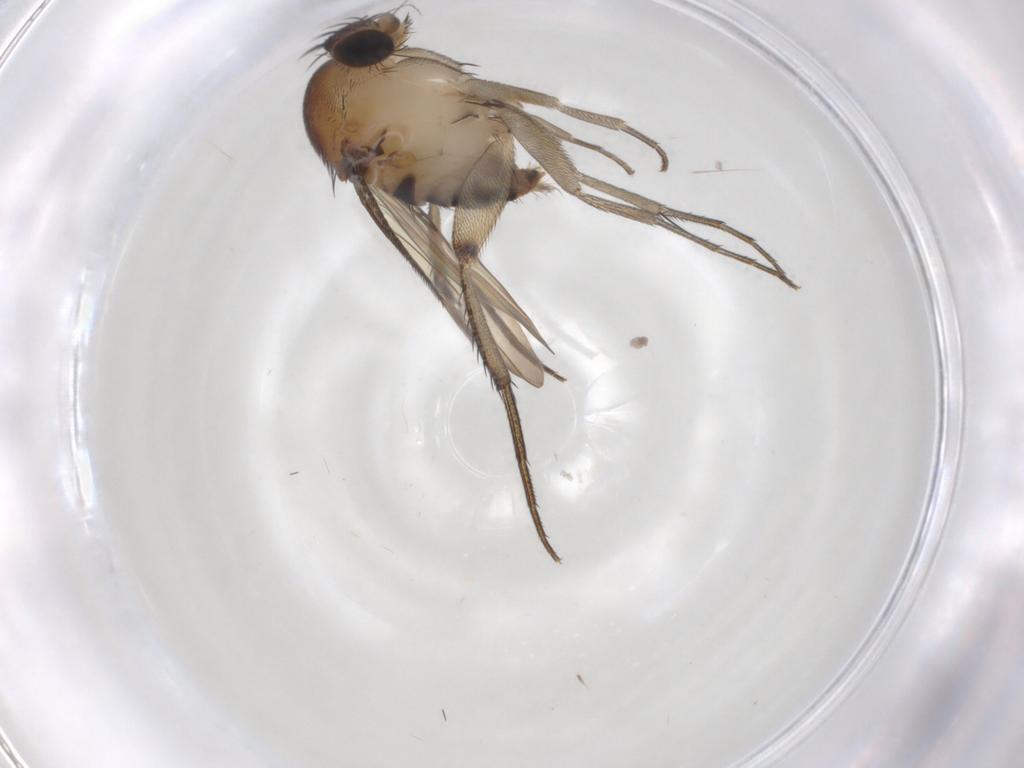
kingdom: Animalia
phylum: Arthropoda
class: Insecta
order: Diptera
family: Phoridae
